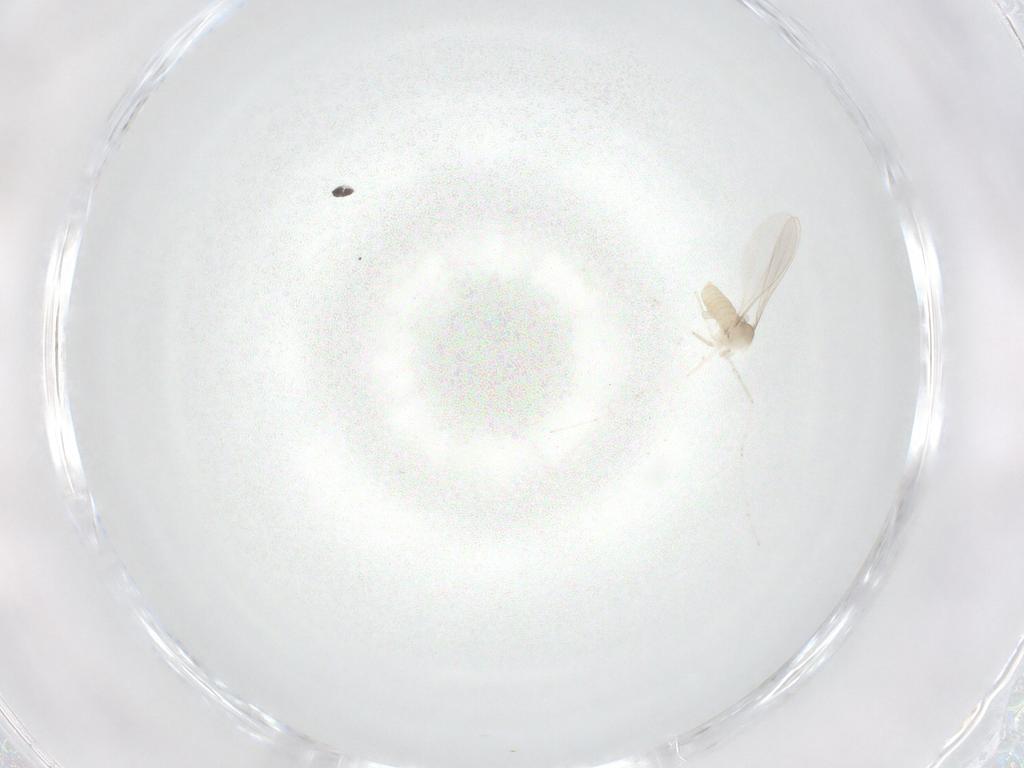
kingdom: Animalia
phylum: Arthropoda
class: Insecta
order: Diptera
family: Cecidomyiidae
